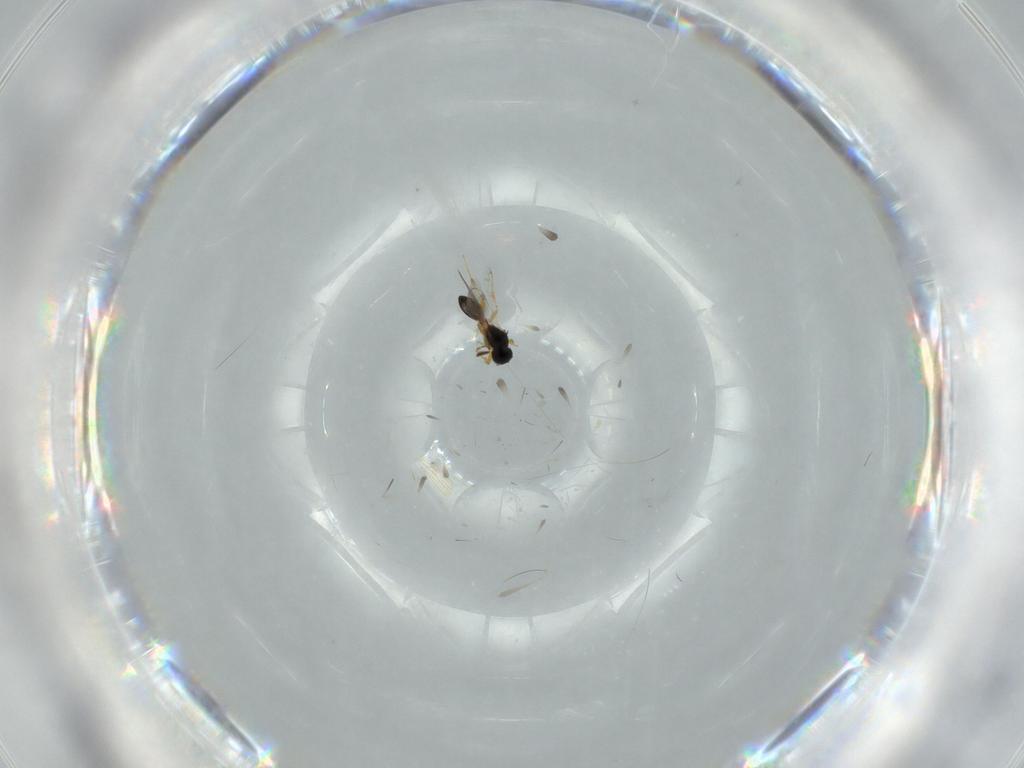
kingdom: Animalia
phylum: Arthropoda
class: Insecta
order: Hymenoptera
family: Platygastridae
